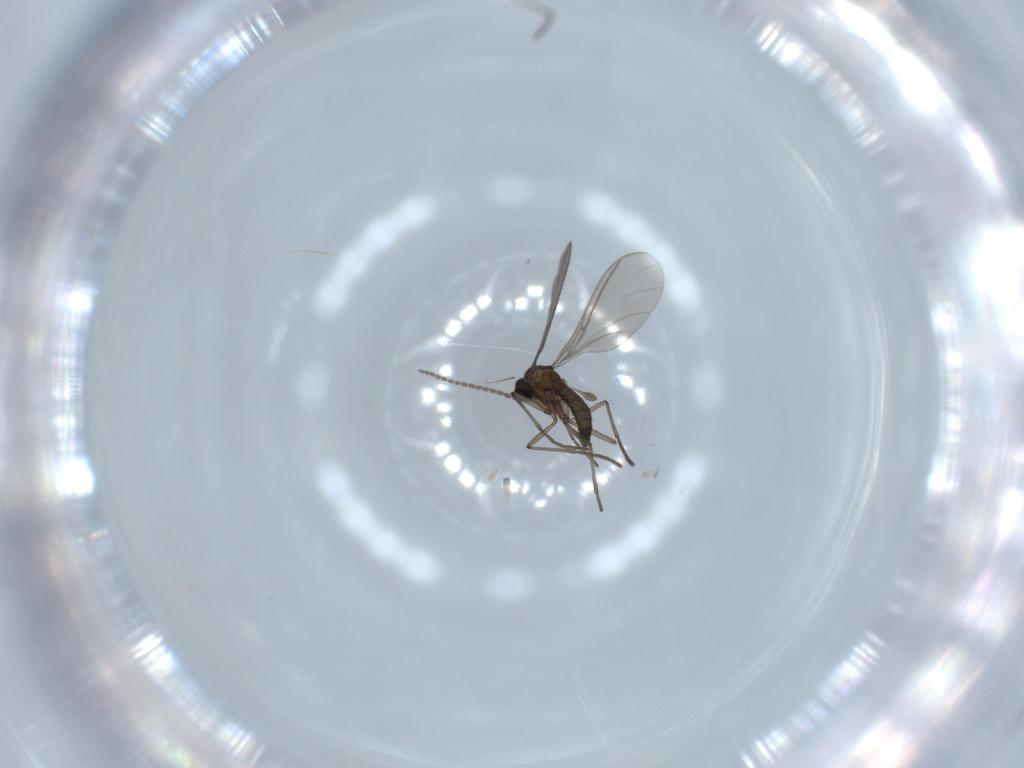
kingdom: Animalia
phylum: Arthropoda
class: Insecta
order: Diptera
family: Sciaridae
